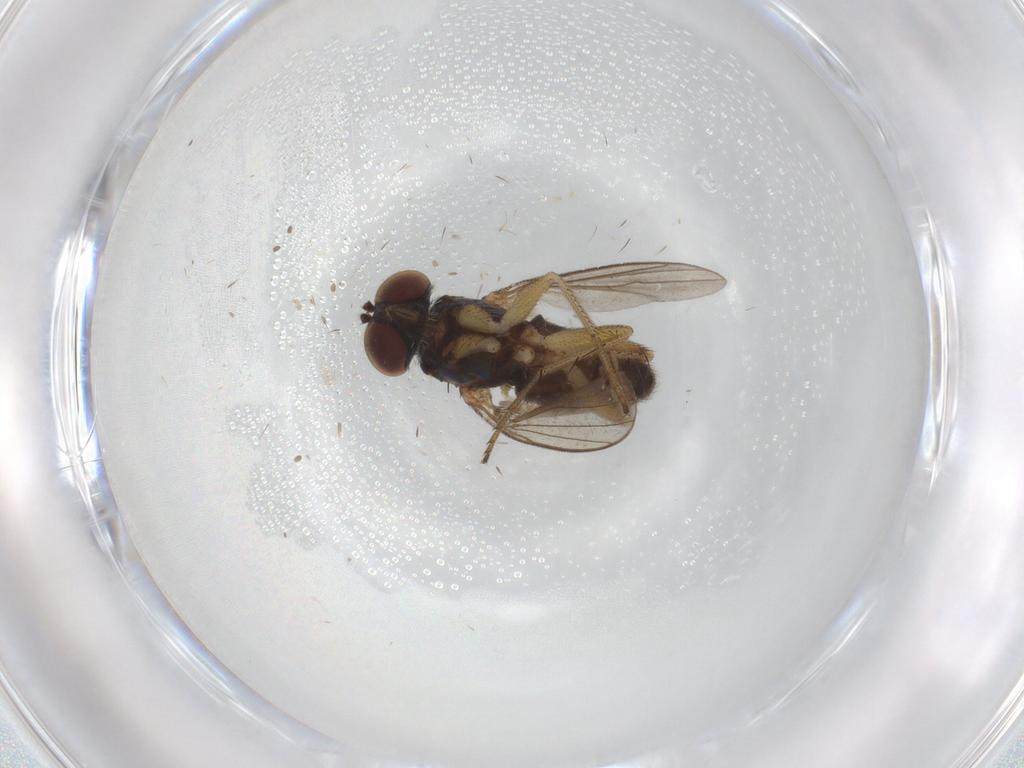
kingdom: Animalia
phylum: Arthropoda
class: Insecta
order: Diptera
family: Dolichopodidae
